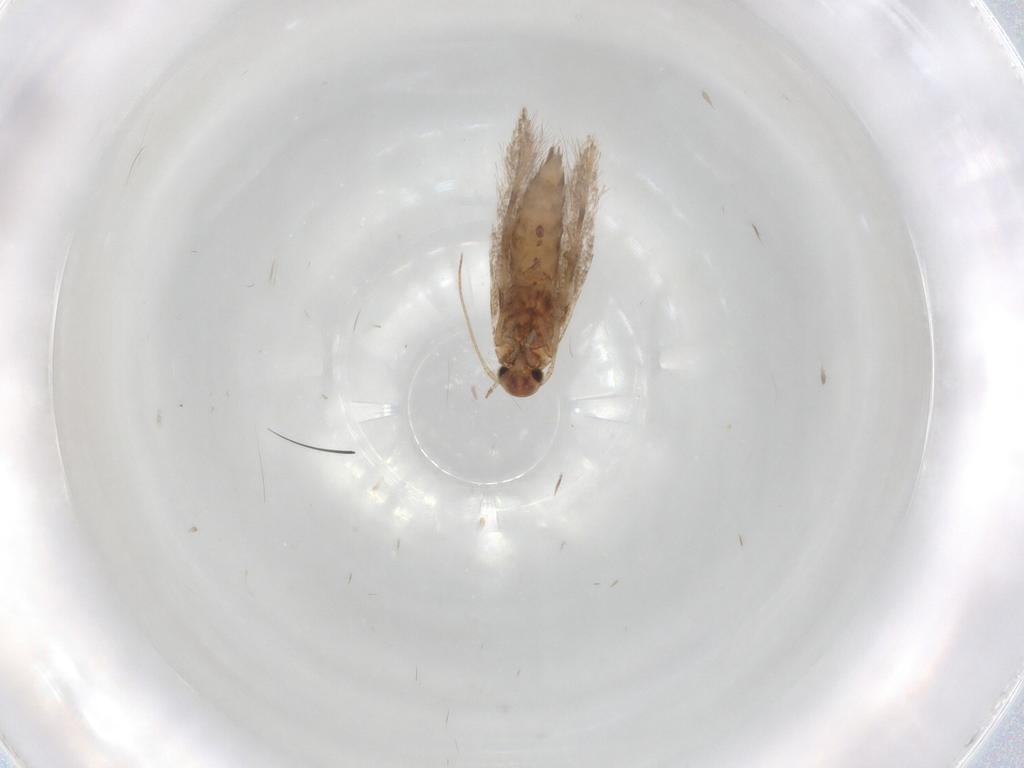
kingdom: Animalia
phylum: Arthropoda
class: Insecta
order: Lepidoptera
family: Elachistidae
